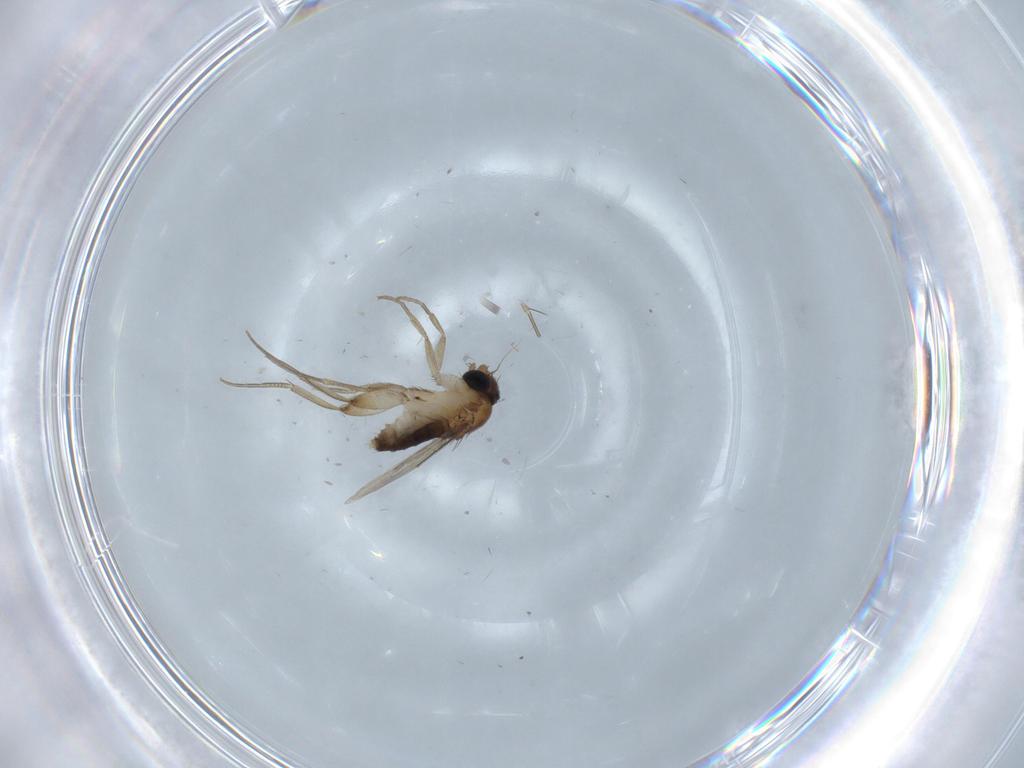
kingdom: Animalia
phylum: Arthropoda
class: Insecta
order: Diptera
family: Phoridae
